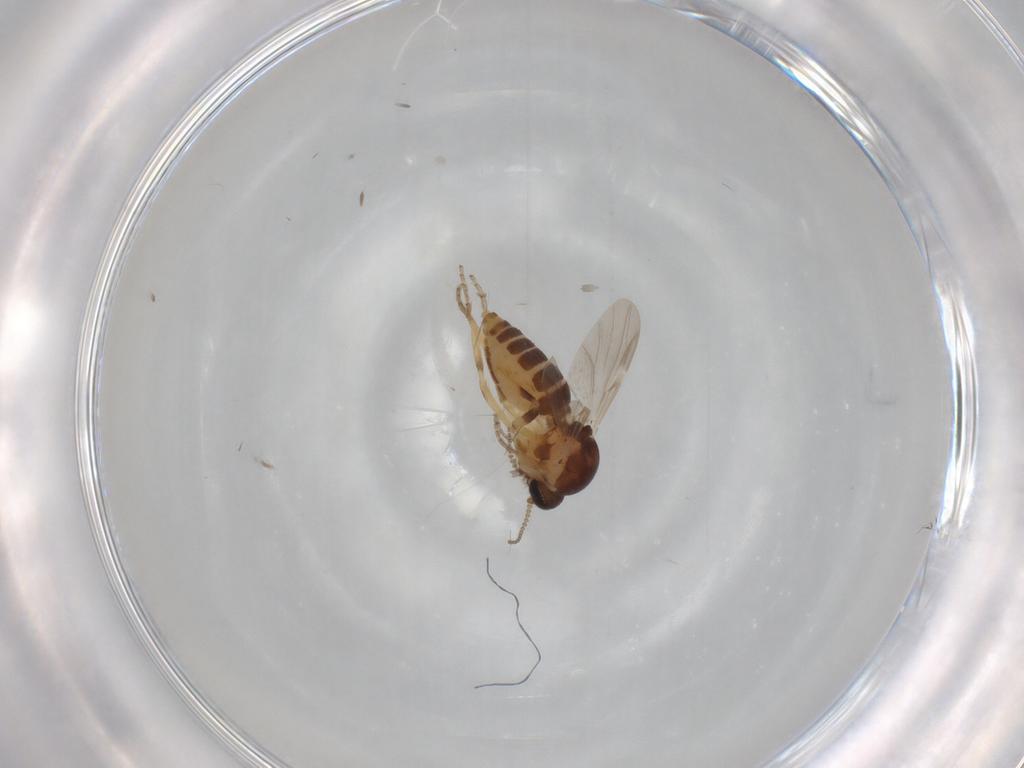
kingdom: Animalia
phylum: Arthropoda
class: Insecta
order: Diptera
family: Ceratopogonidae
